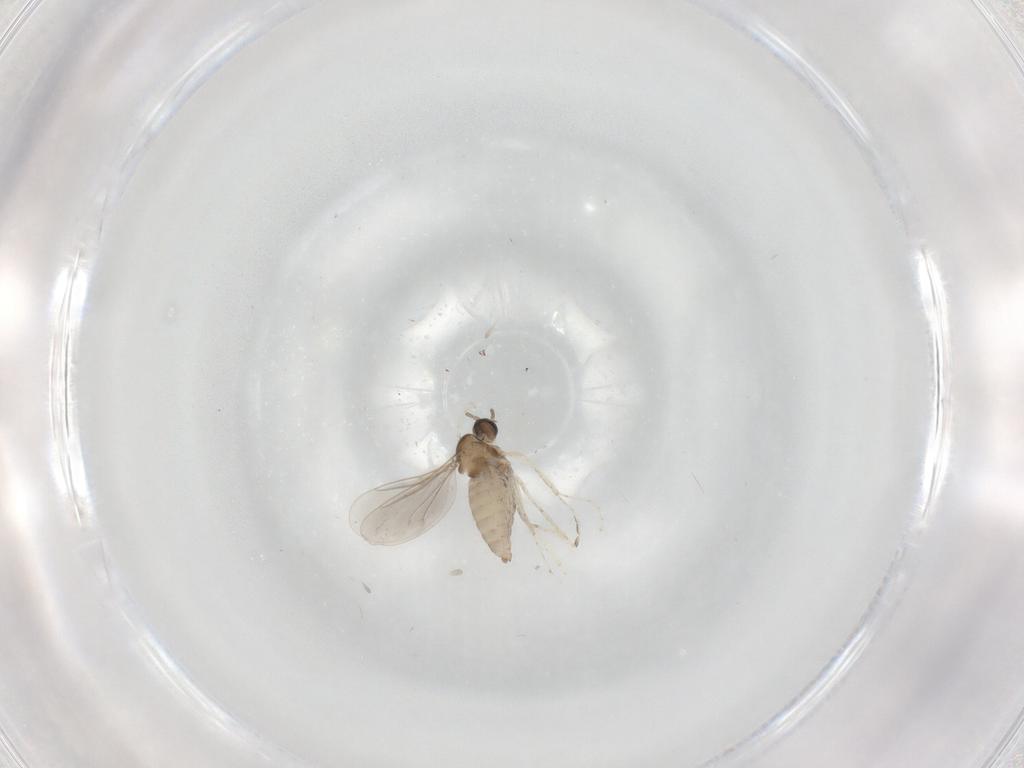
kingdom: Animalia
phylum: Arthropoda
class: Insecta
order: Diptera
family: Cecidomyiidae
